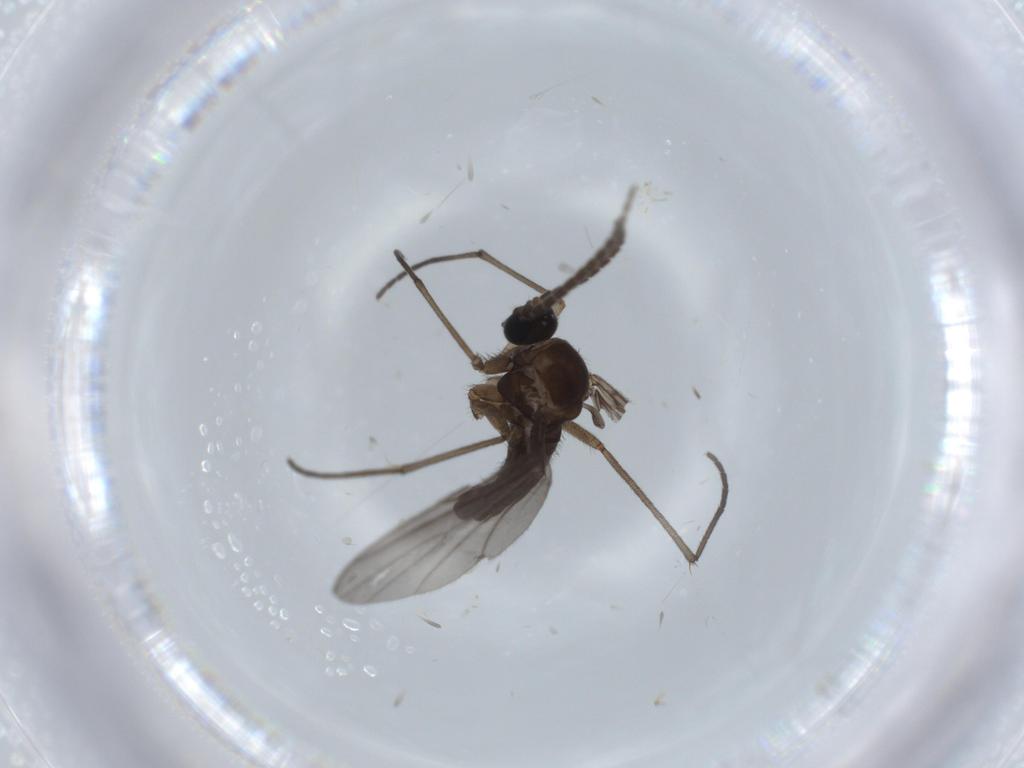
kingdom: Animalia
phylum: Arthropoda
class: Insecta
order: Diptera
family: Sciaridae
